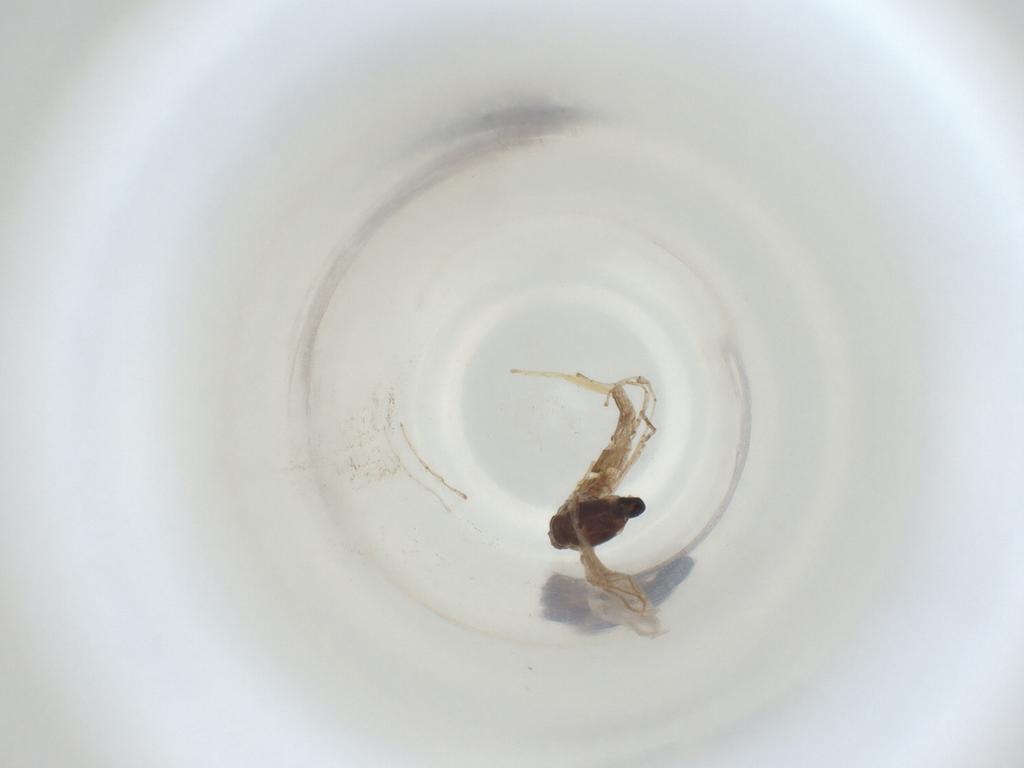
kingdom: Animalia
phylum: Arthropoda
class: Insecta
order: Diptera
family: Cecidomyiidae
